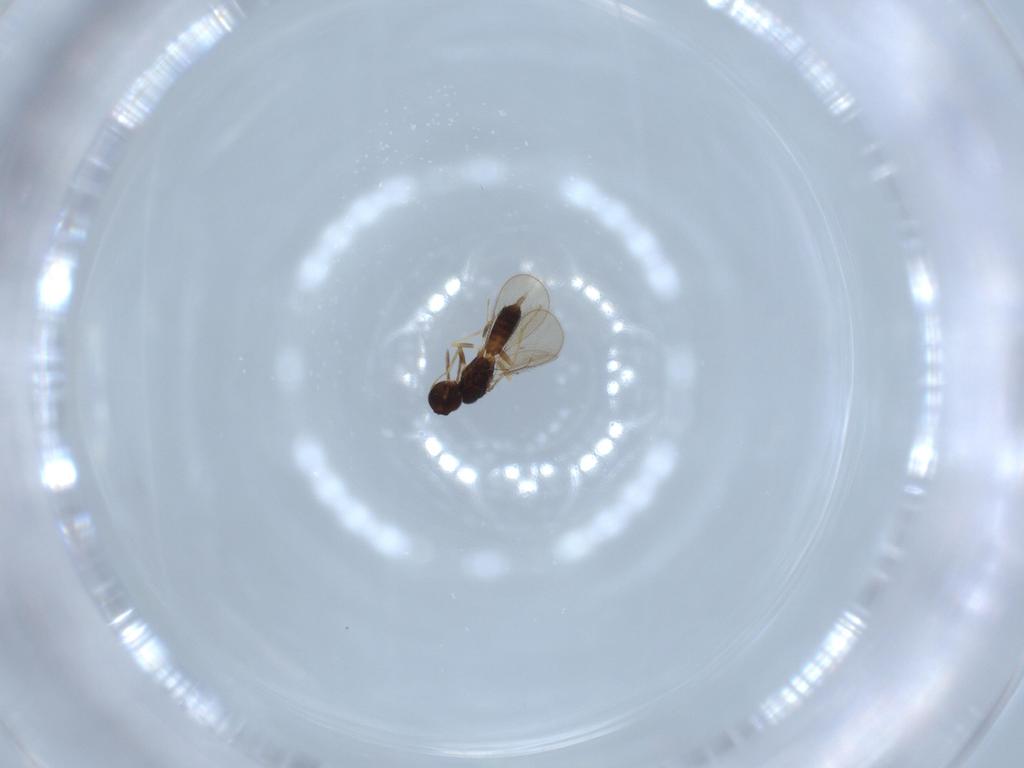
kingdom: Animalia
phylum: Arthropoda
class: Insecta
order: Hymenoptera
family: Eulophidae
